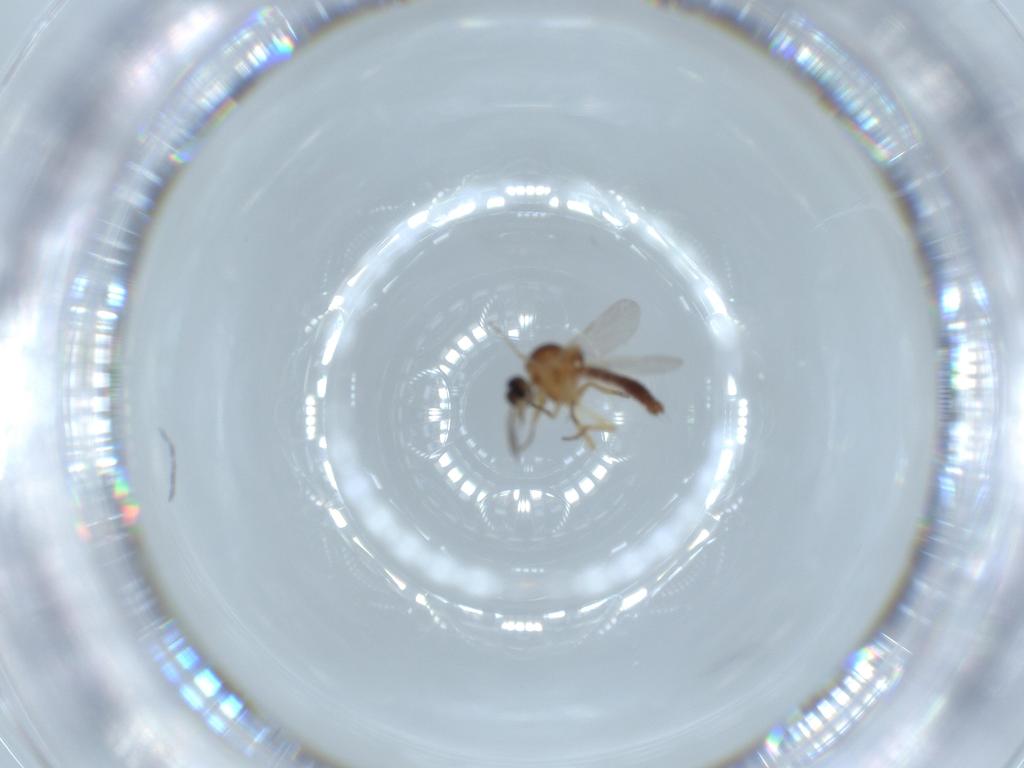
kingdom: Animalia
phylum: Arthropoda
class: Insecta
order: Diptera
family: Ceratopogonidae
